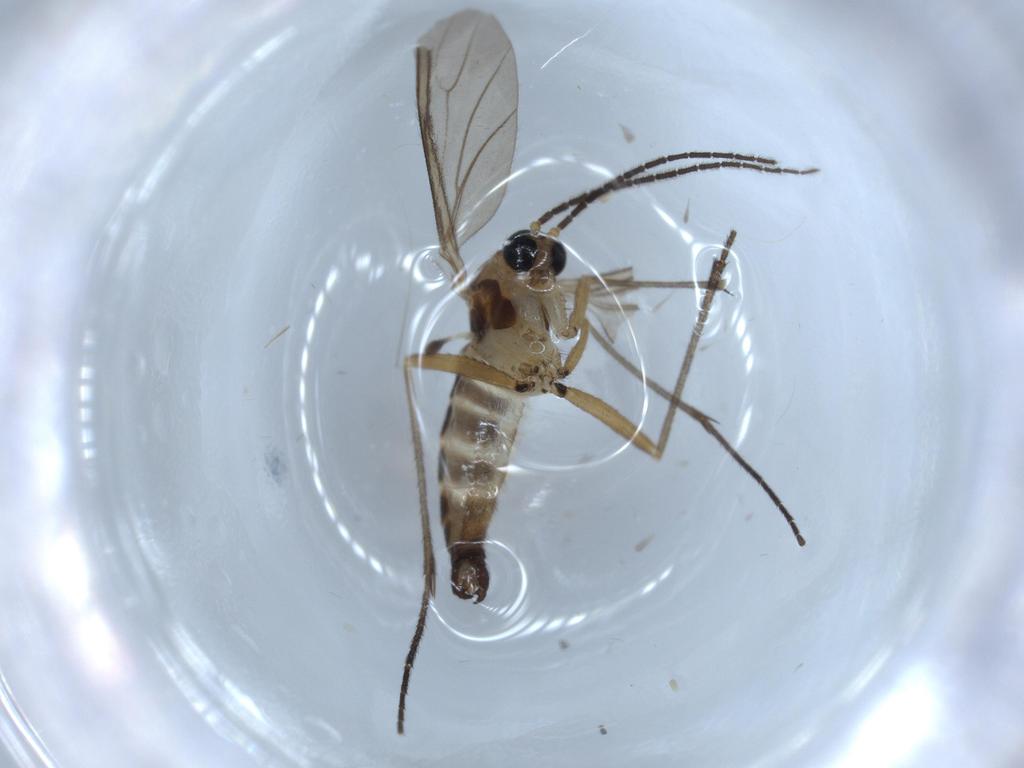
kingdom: Animalia
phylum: Arthropoda
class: Insecta
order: Diptera
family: Sciaridae
